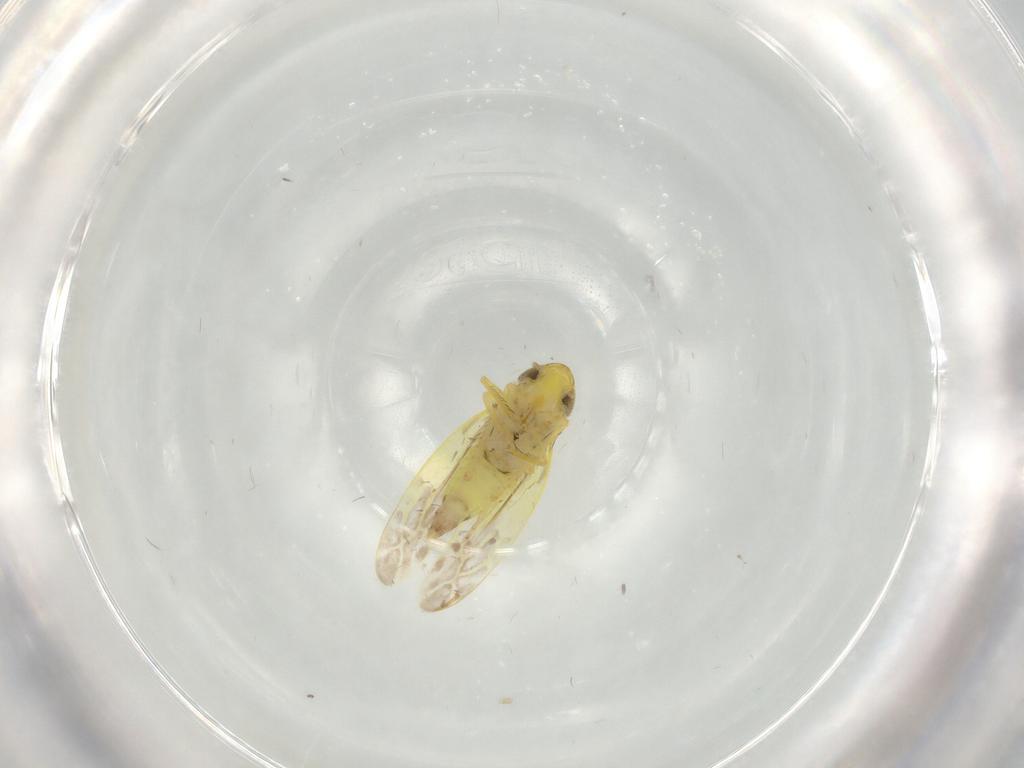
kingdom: Animalia
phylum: Arthropoda
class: Insecta
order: Hemiptera
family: Cicadellidae
